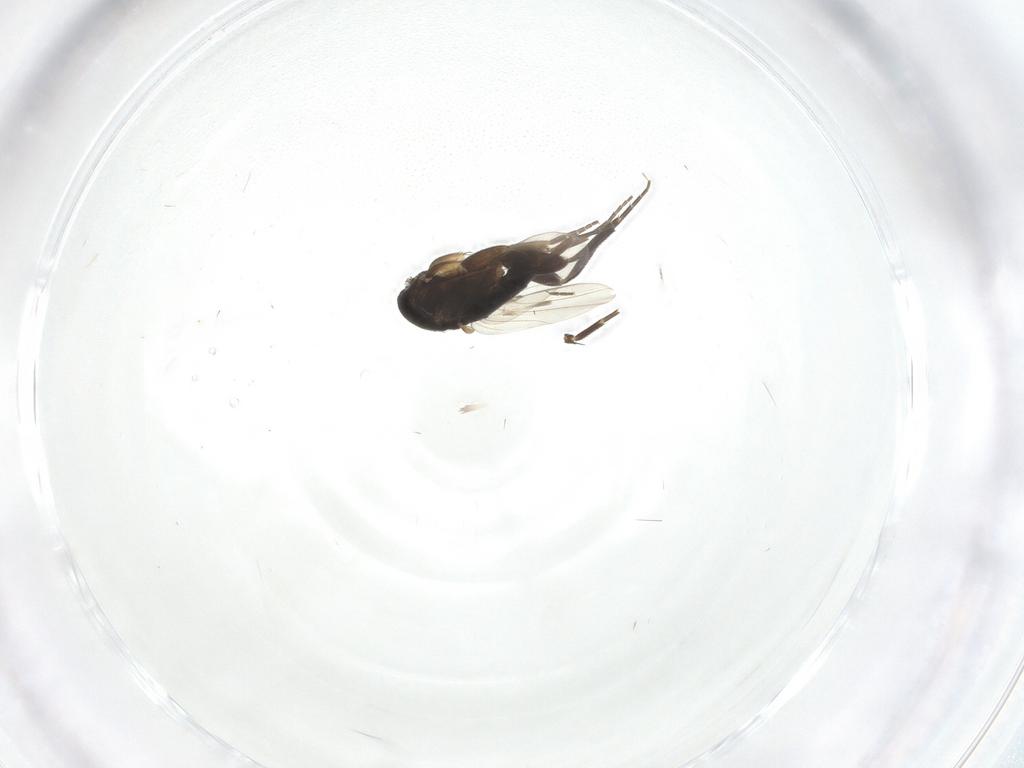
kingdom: Animalia
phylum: Arthropoda
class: Insecta
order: Diptera
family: Phoridae
